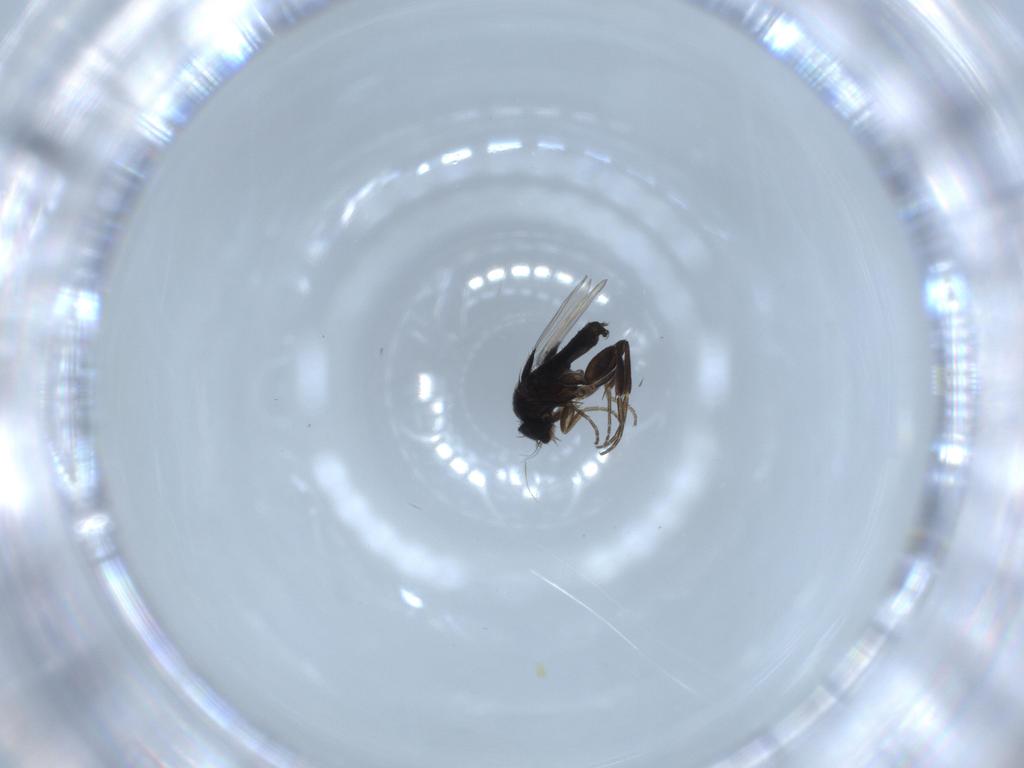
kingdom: Animalia
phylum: Arthropoda
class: Insecta
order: Diptera
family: Phoridae
